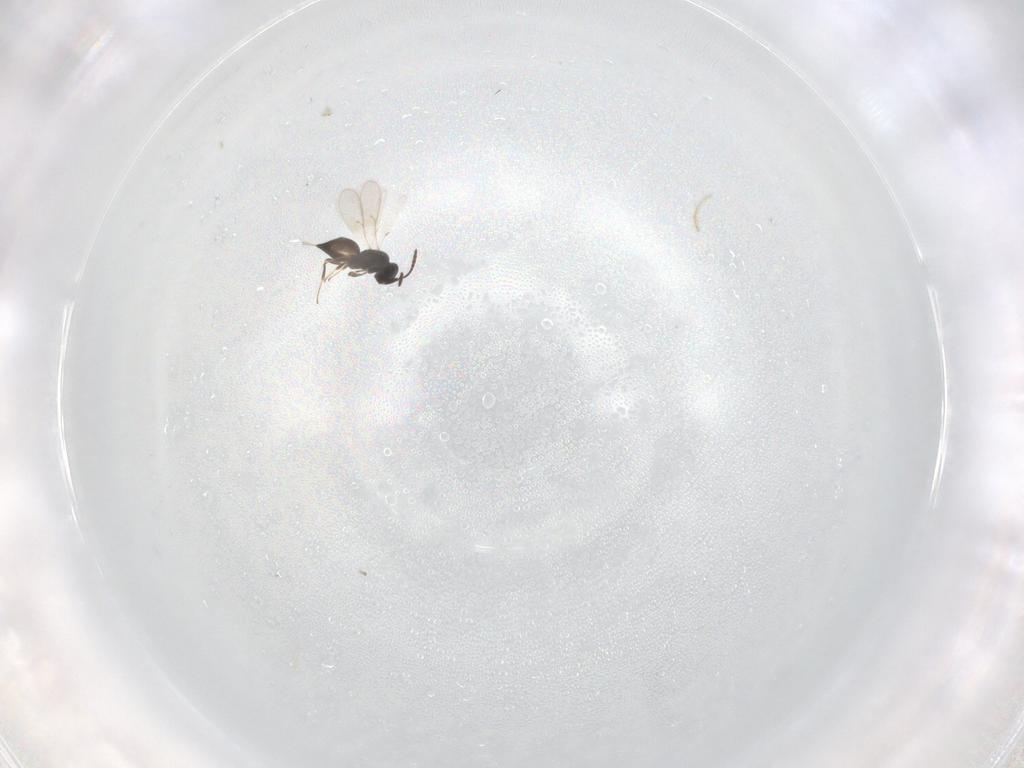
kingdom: Animalia
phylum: Arthropoda
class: Insecta
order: Hymenoptera
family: Scelionidae
